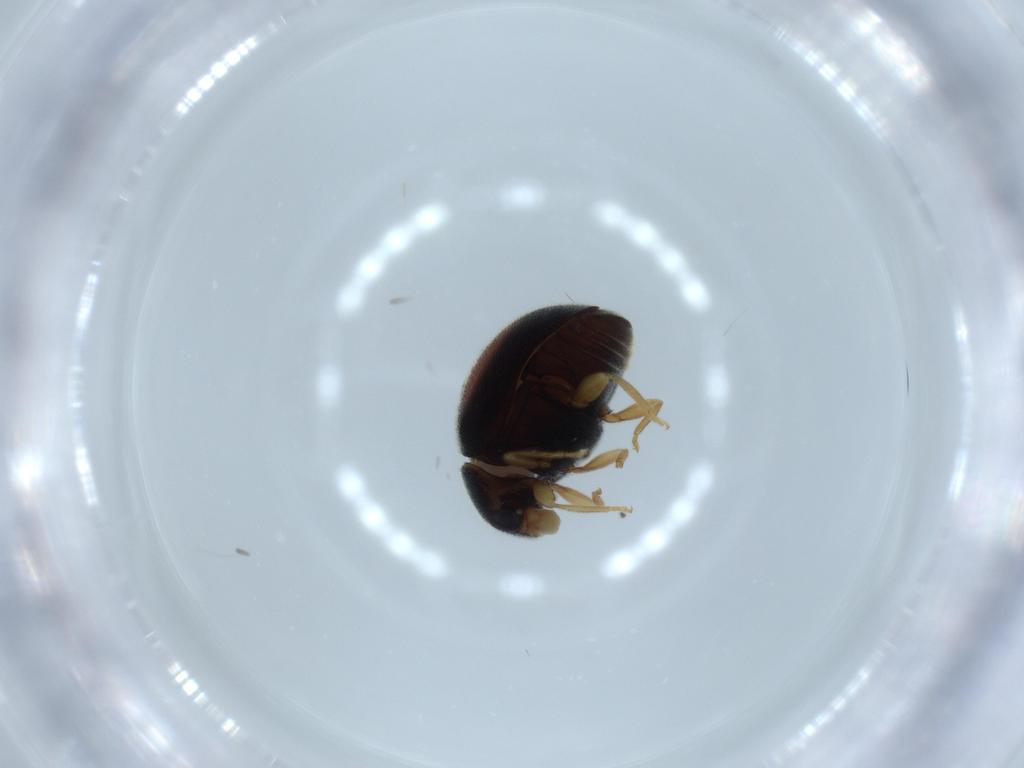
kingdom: Animalia
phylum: Arthropoda
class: Insecta
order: Coleoptera
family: Coccinellidae
